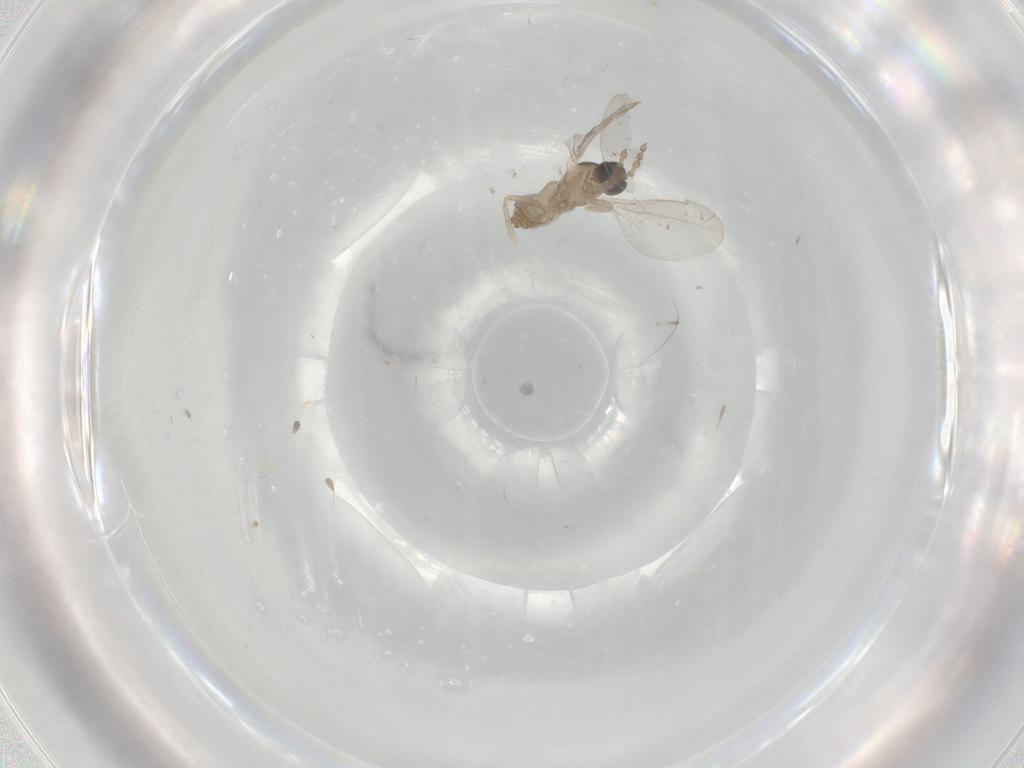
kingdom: Animalia
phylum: Arthropoda
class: Insecta
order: Diptera
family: Cecidomyiidae
